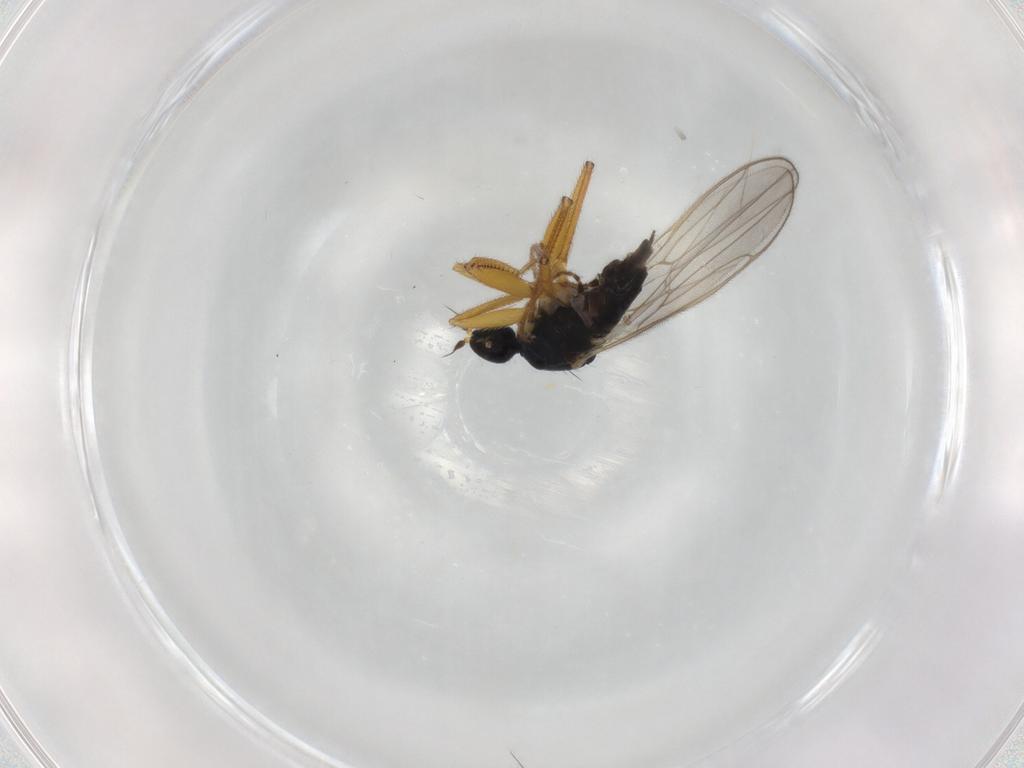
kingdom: Animalia
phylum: Arthropoda
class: Insecta
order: Diptera
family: Hybotidae
